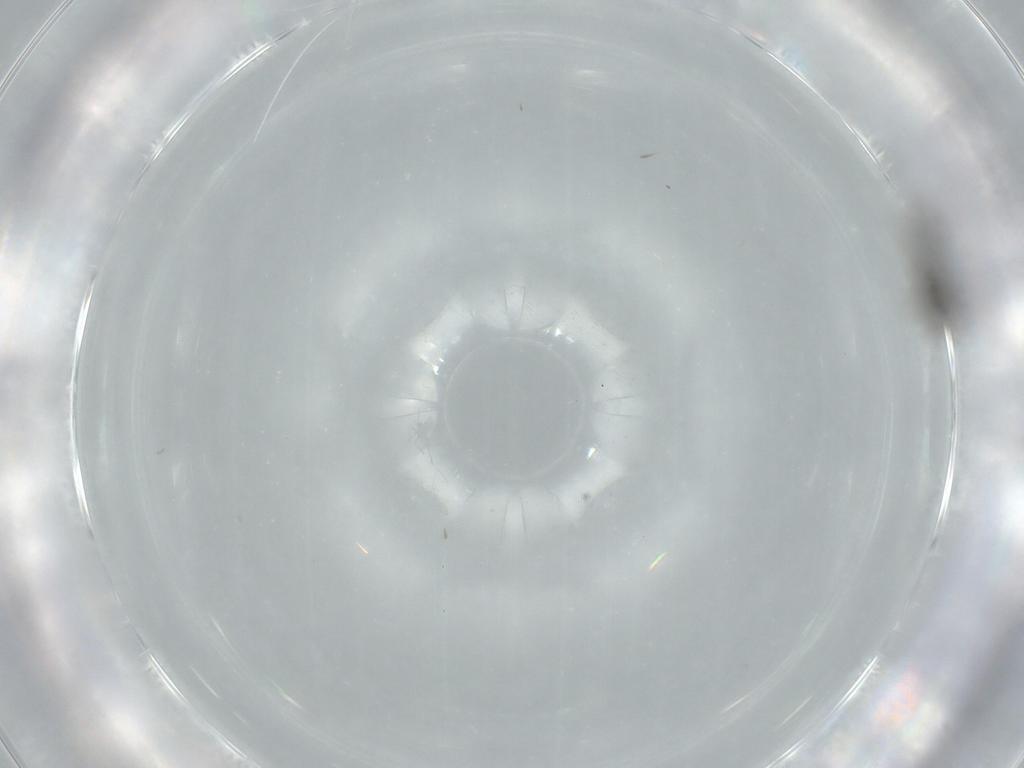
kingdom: Animalia
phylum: Arthropoda
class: Insecta
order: Diptera
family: Cecidomyiidae
